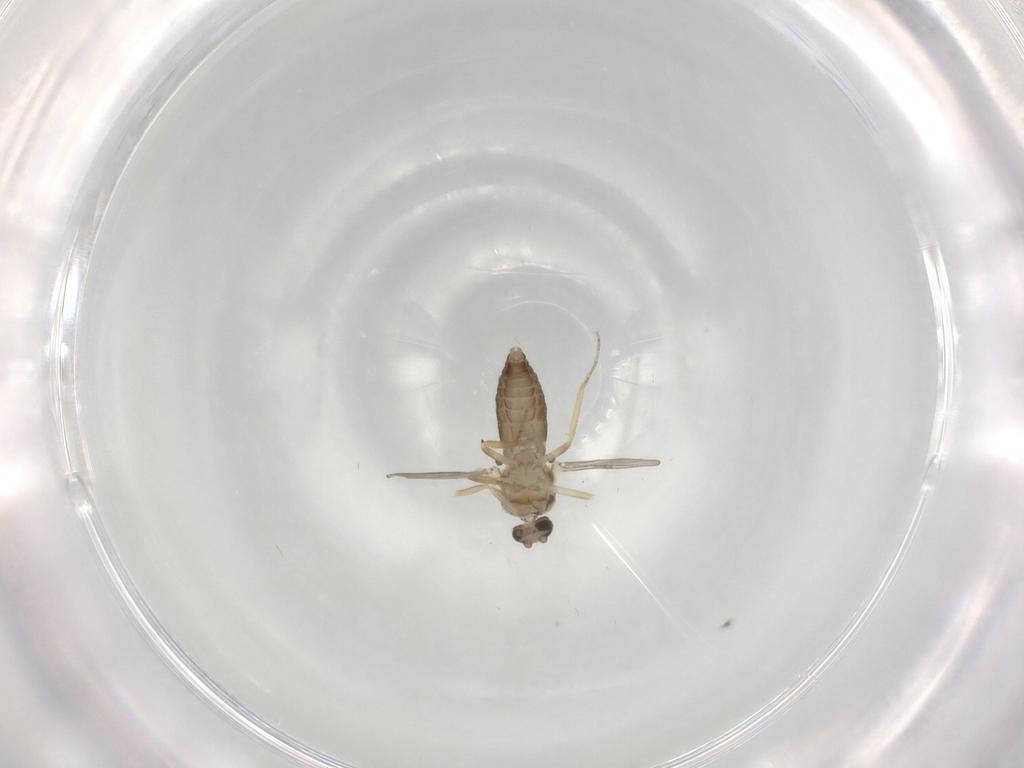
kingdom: Animalia
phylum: Arthropoda
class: Insecta
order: Diptera
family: Ceratopogonidae
